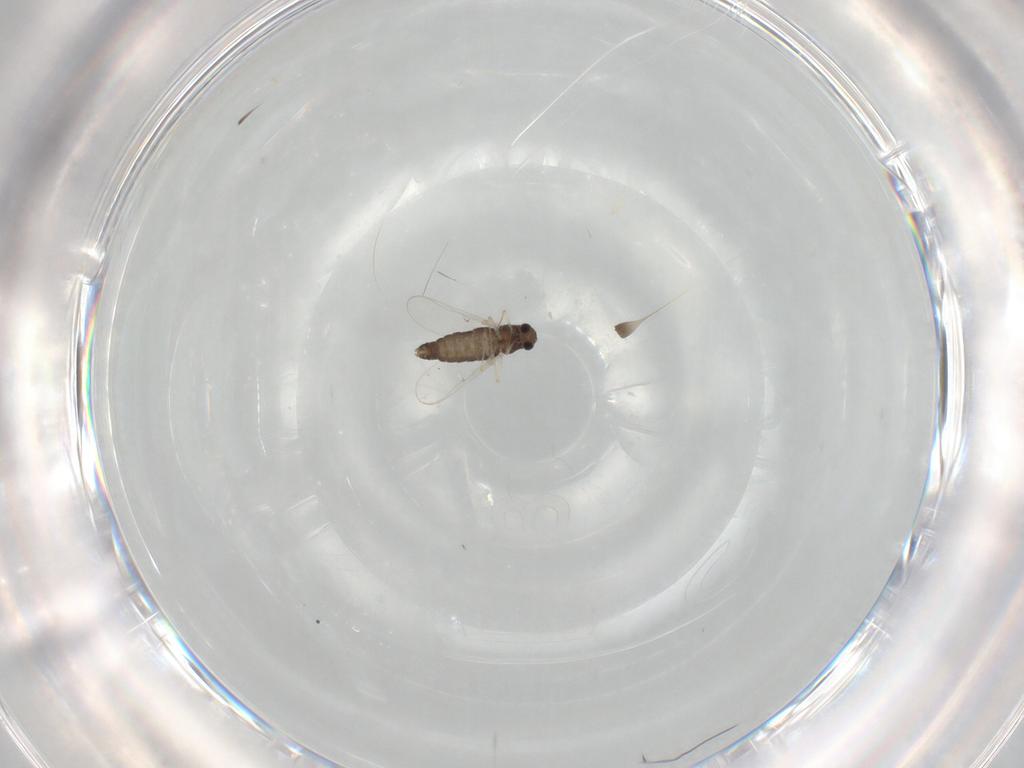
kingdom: Animalia
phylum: Arthropoda
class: Insecta
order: Diptera
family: Chironomidae
